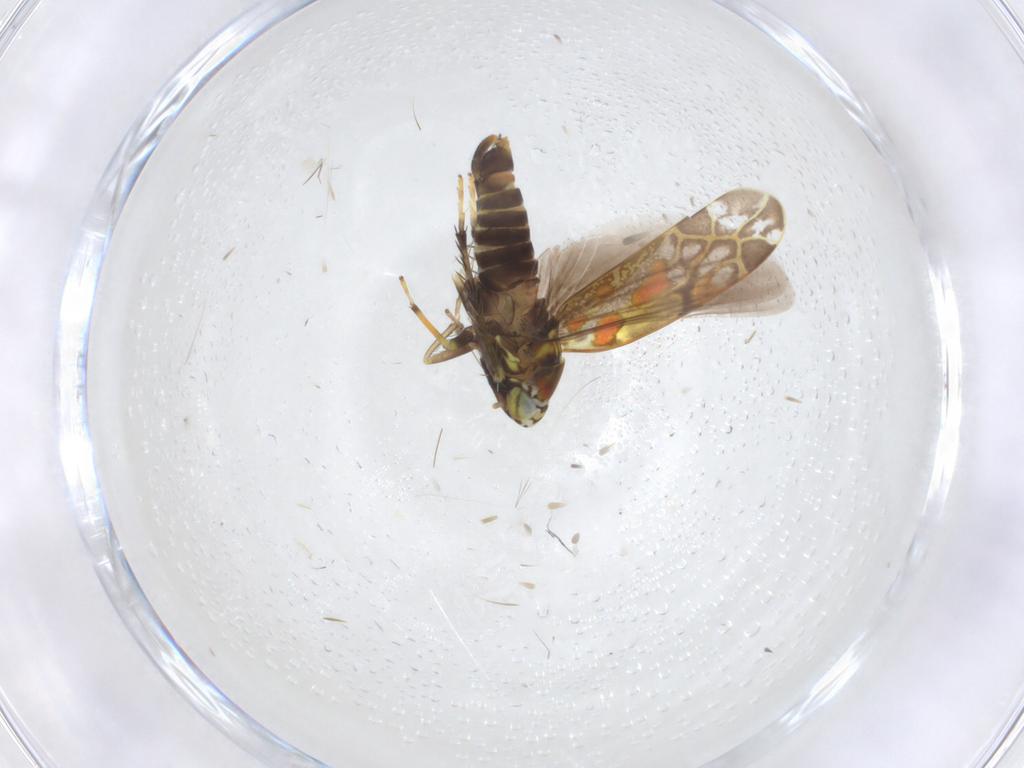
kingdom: Animalia
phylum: Arthropoda
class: Insecta
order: Hemiptera
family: Cicadellidae
